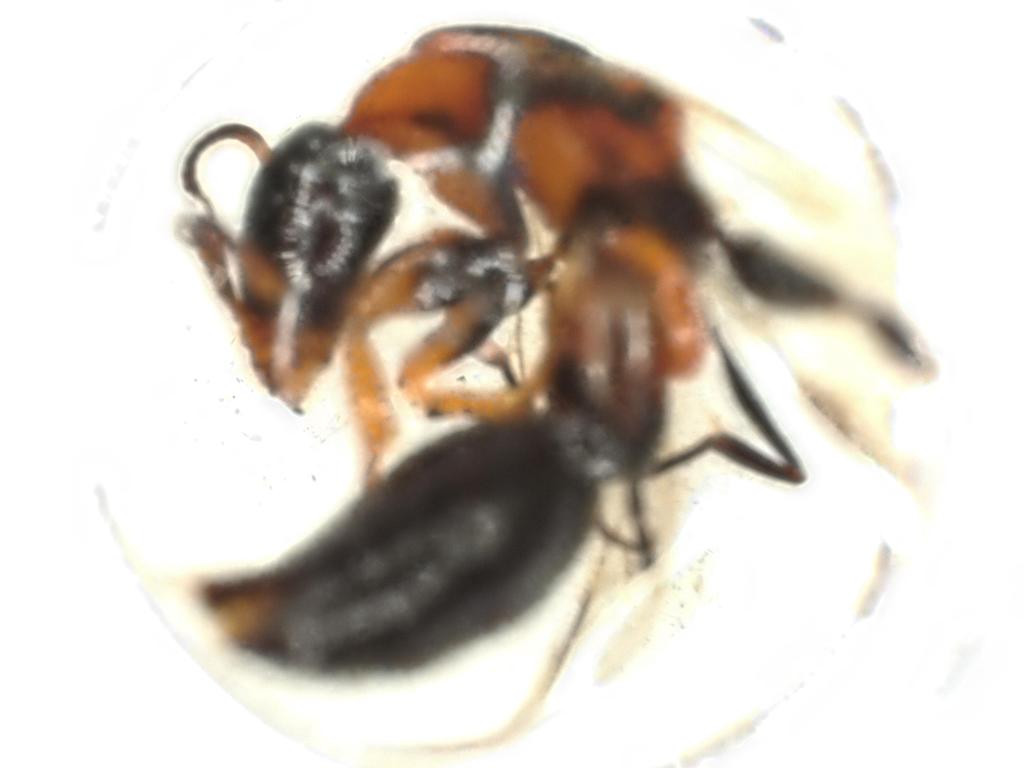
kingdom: Animalia
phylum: Arthropoda
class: Insecta
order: Hymenoptera
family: Formicidae
